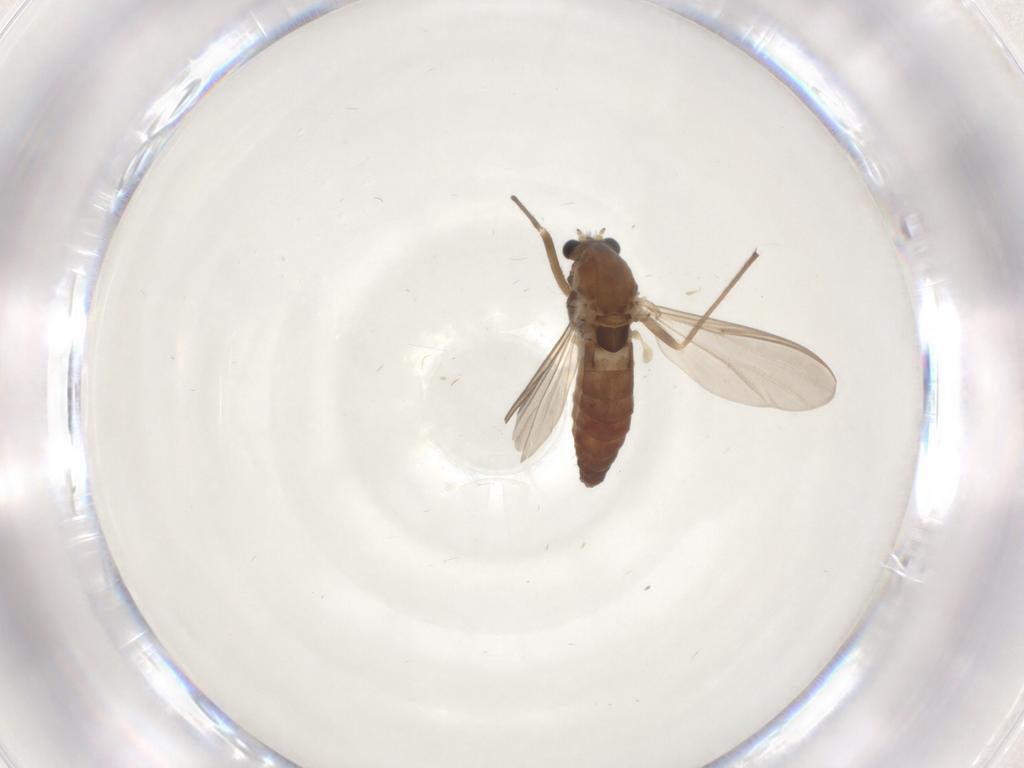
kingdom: Animalia
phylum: Arthropoda
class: Insecta
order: Diptera
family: Chironomidae
